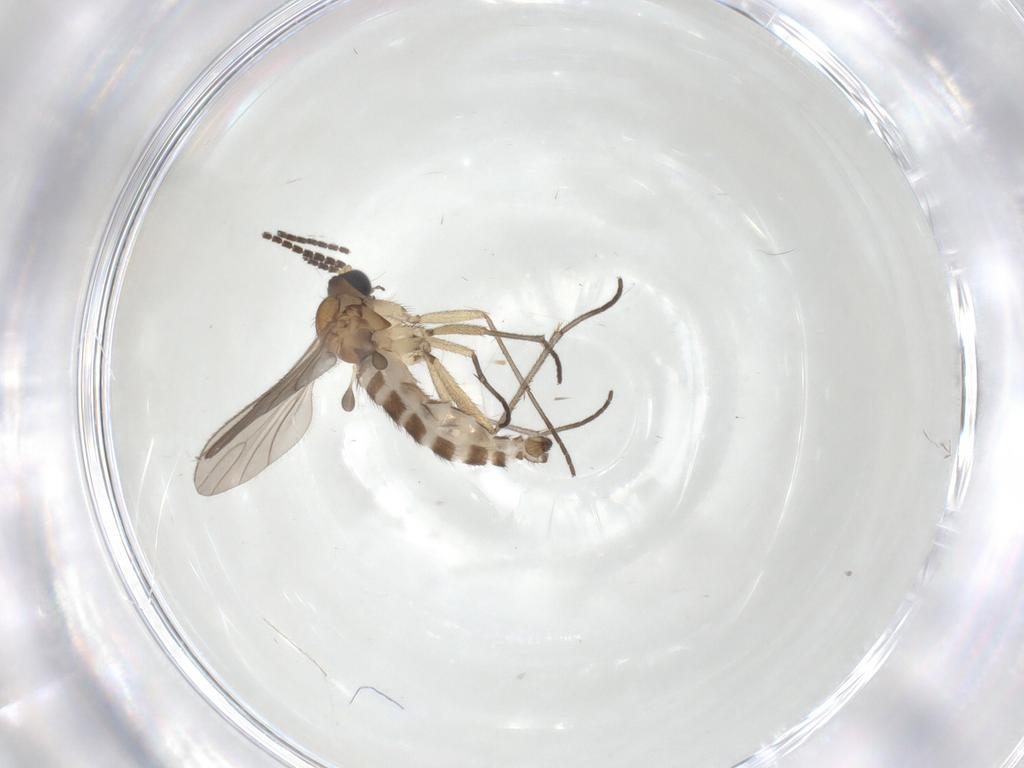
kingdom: Animalia
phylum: Arthropoda
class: Insecta
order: Diptera
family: Sciaridae
